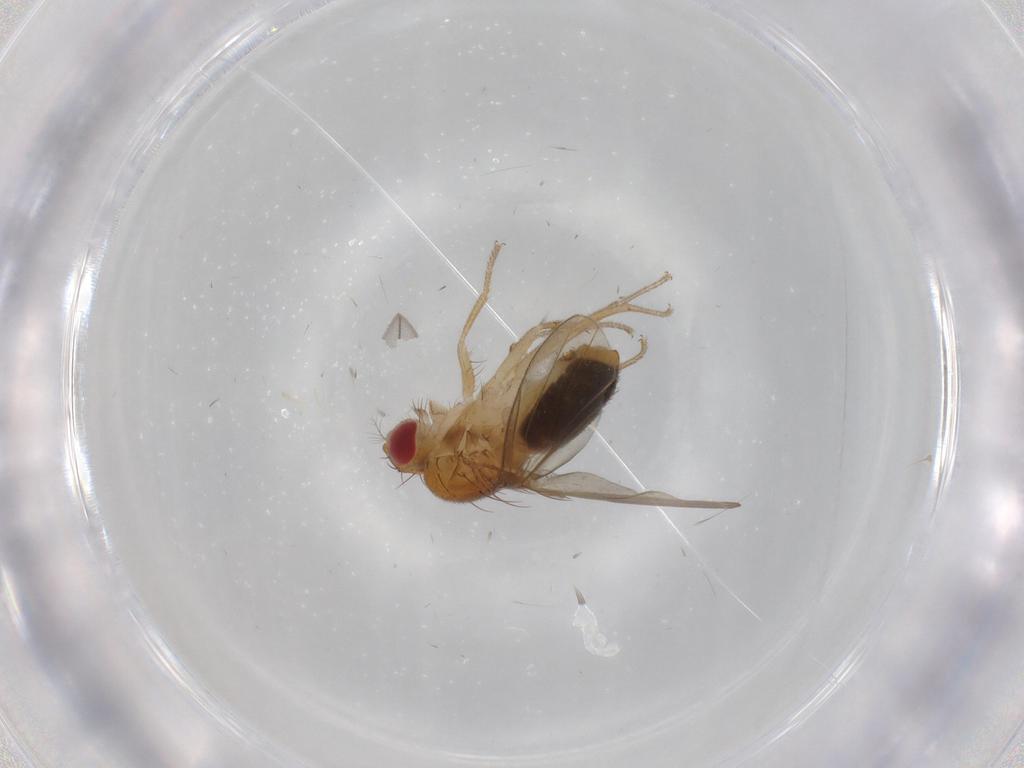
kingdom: Animalia
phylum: Arthropoda
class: Insecta
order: Diptera
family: Drosophilidae
